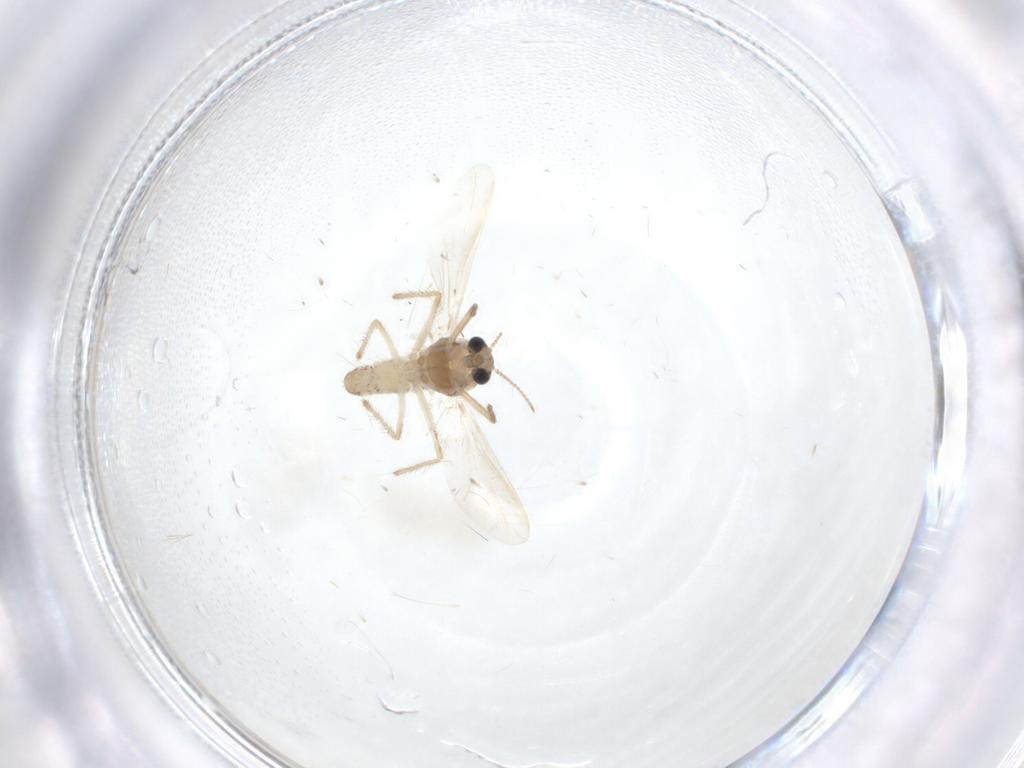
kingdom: Animalia
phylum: Arthropoda
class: Insecta
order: Diptera
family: Chironomidae
